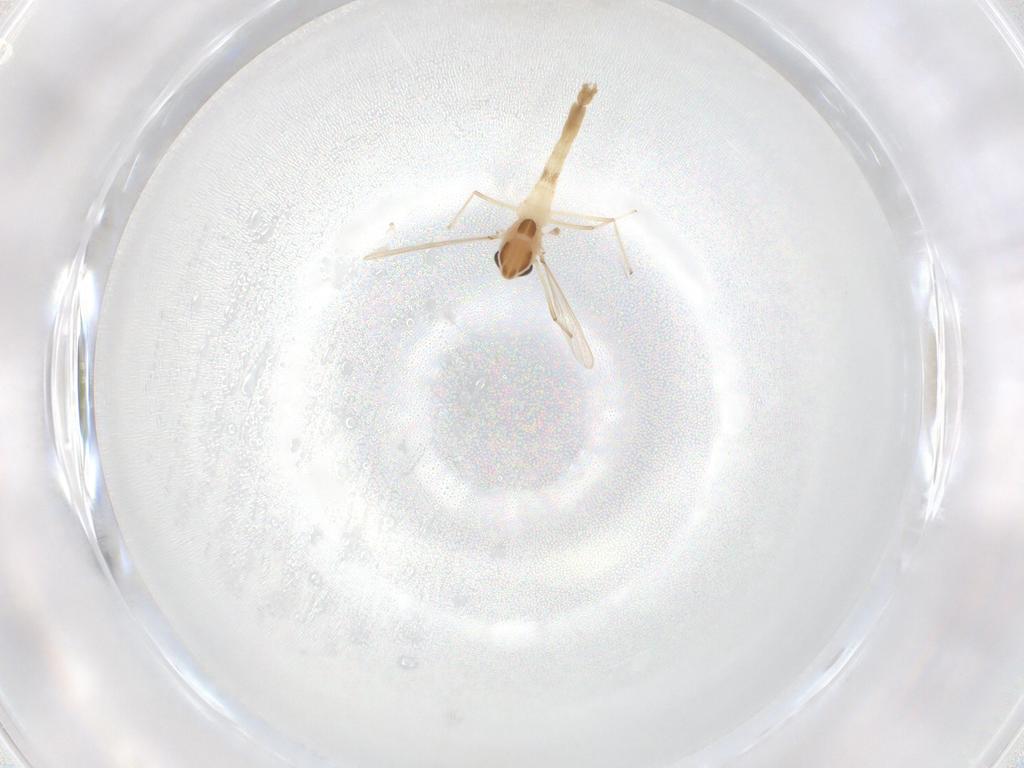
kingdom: Animalia
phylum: Arthropoda
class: Insecta
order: Diptera
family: Chironomidae
